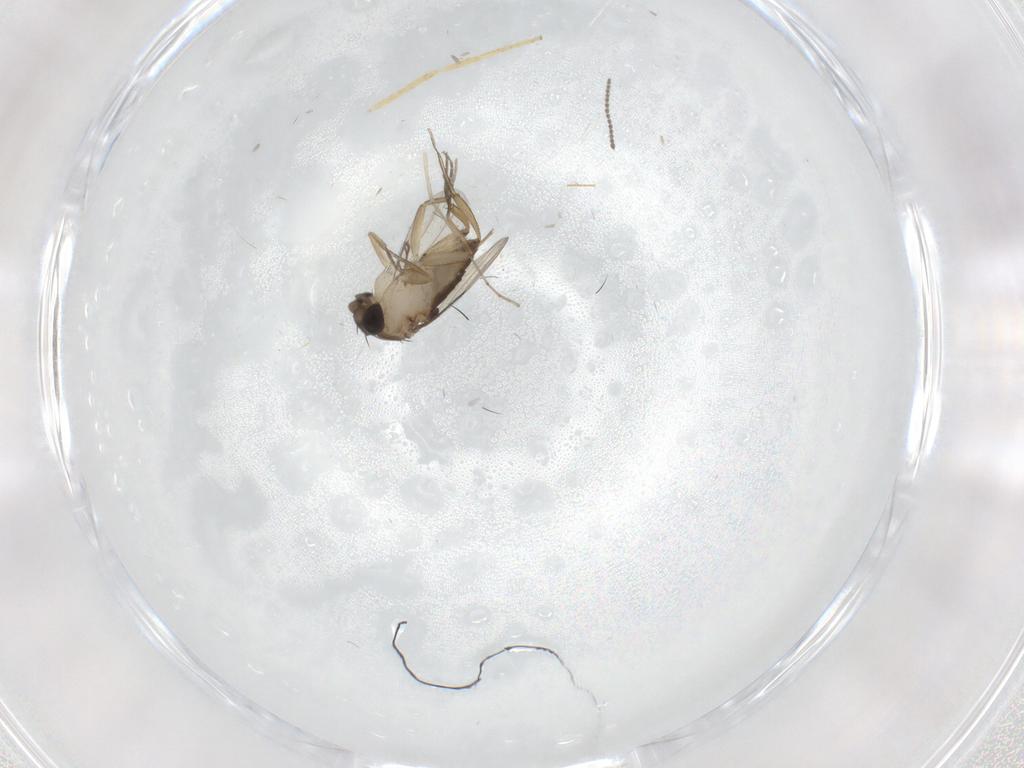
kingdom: Animalia
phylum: Arthropoda
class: Insecta
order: Diptera
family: Phoridae
